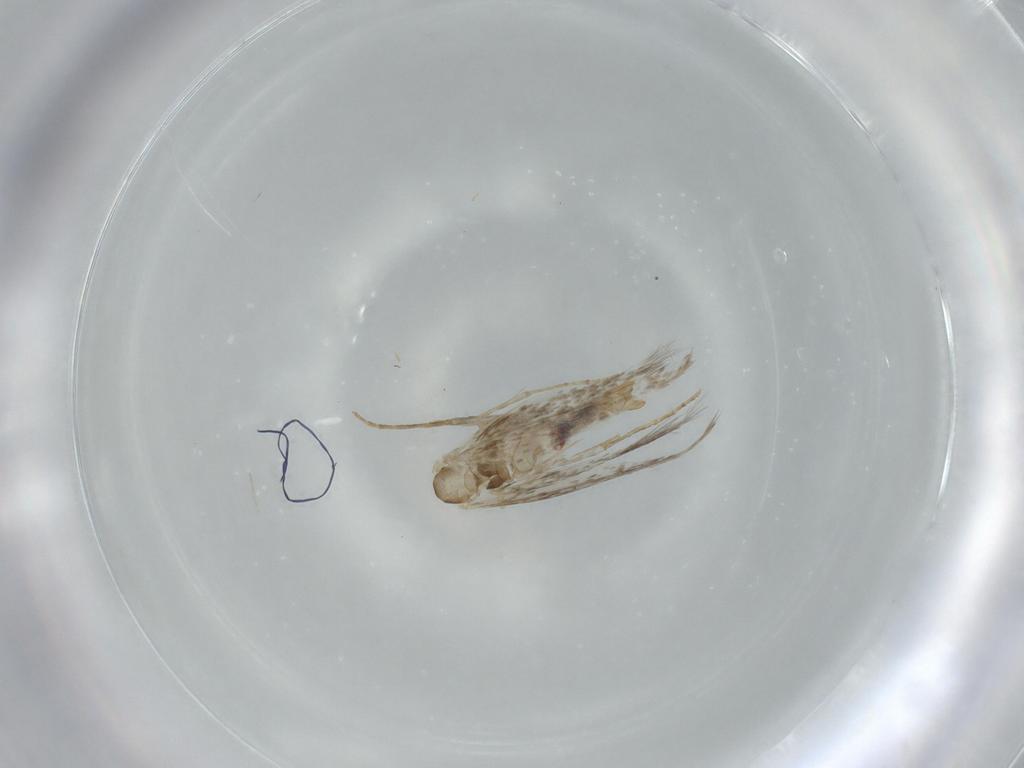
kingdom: Animalia
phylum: Arthropoda
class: Insecta
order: Lepidoptera
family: Bucculatricidae
